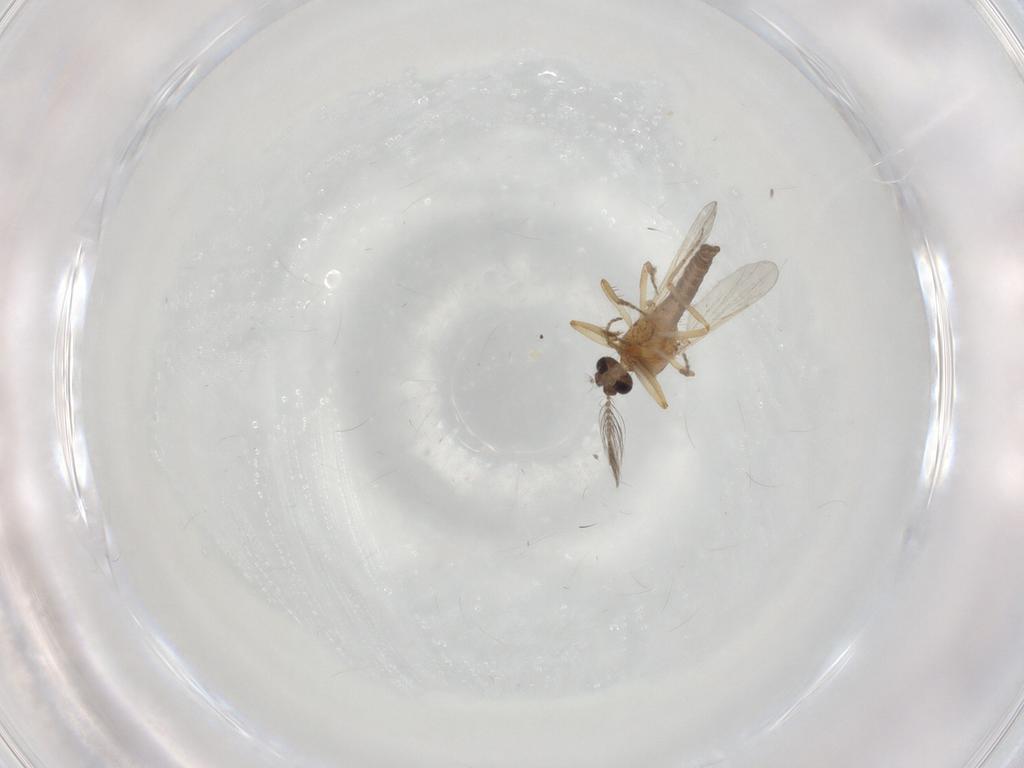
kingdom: Animalia
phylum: Arthropoda
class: Insecta
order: Diptera
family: Ceratopogonidae
